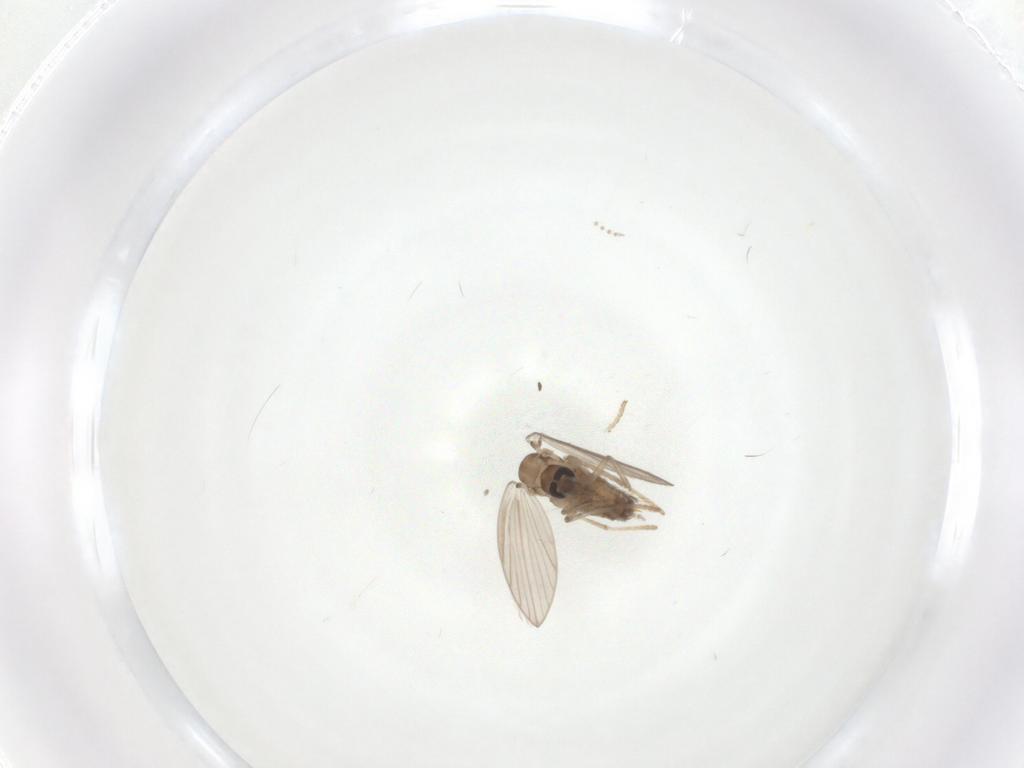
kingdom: Animalia
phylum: Arthropoda
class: Insecta
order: Diptera
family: Psychodidae
